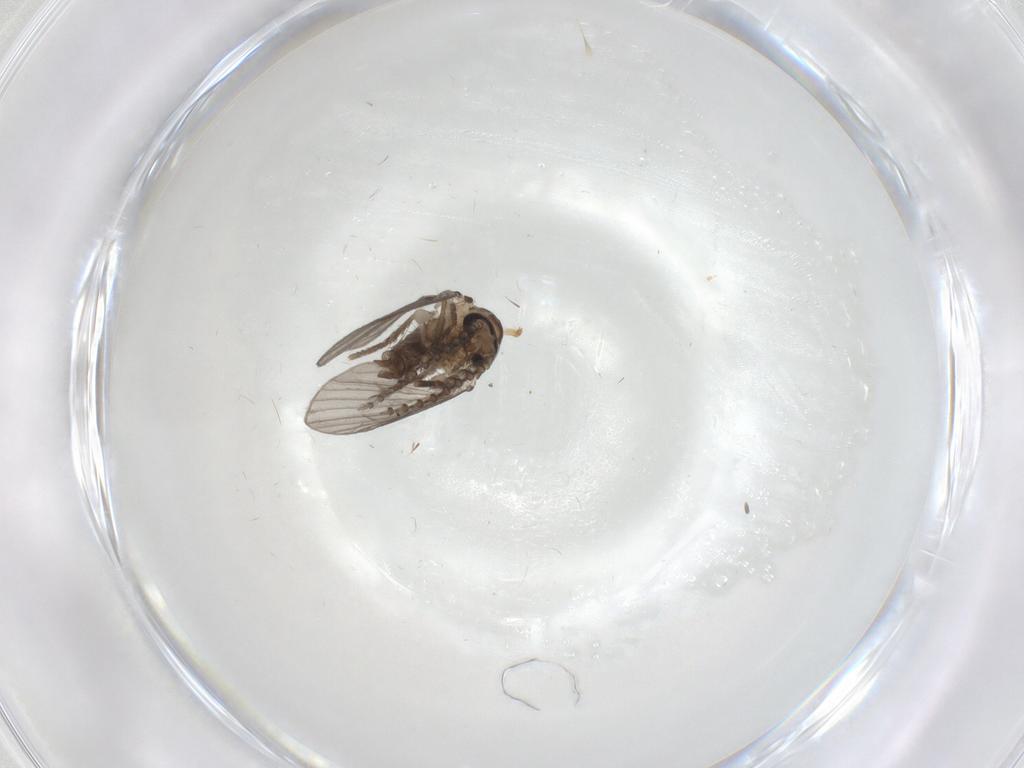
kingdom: Animalia
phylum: Arthropoda
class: Insecta
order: Diptera
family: Psychodidae
